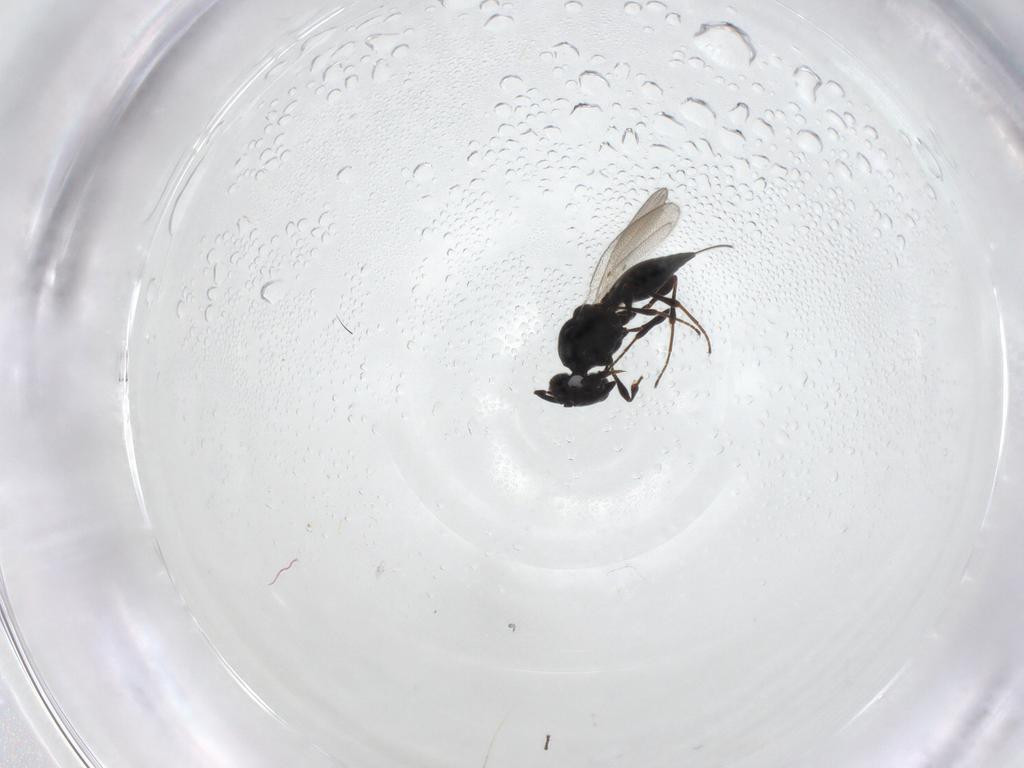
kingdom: Animalia
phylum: Arthropoda
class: Insecta
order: Hymenoptera
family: Platygastridae
